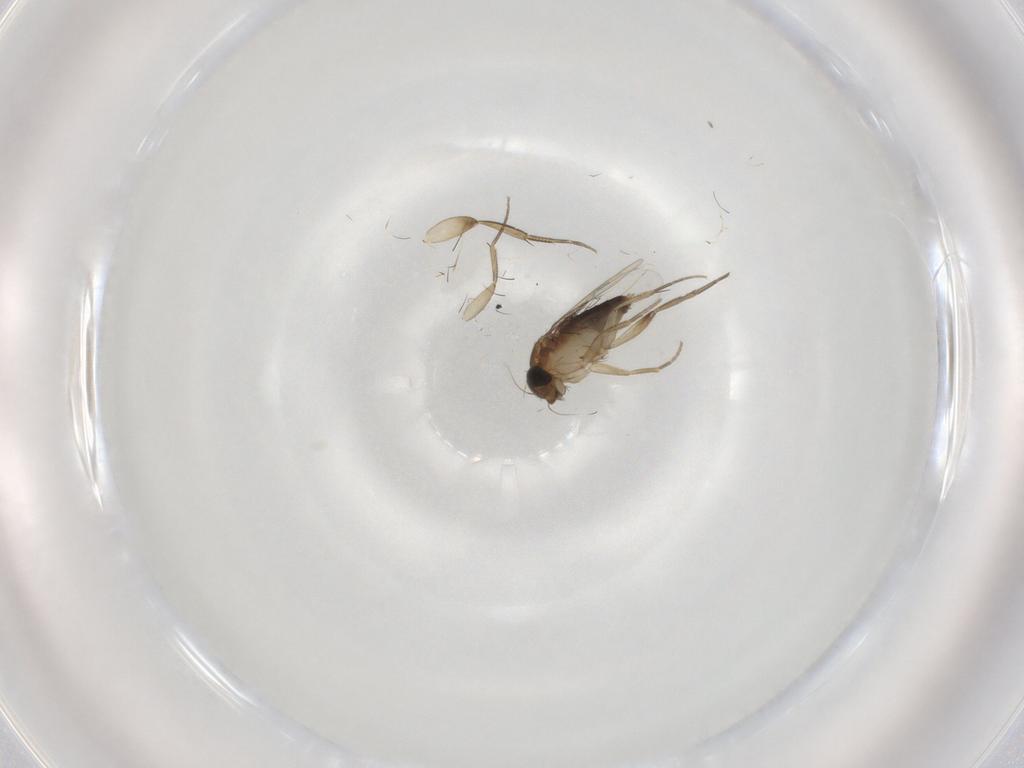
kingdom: Animalia
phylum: Arthropoda
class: Insecta
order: Diptera
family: Phoridae
